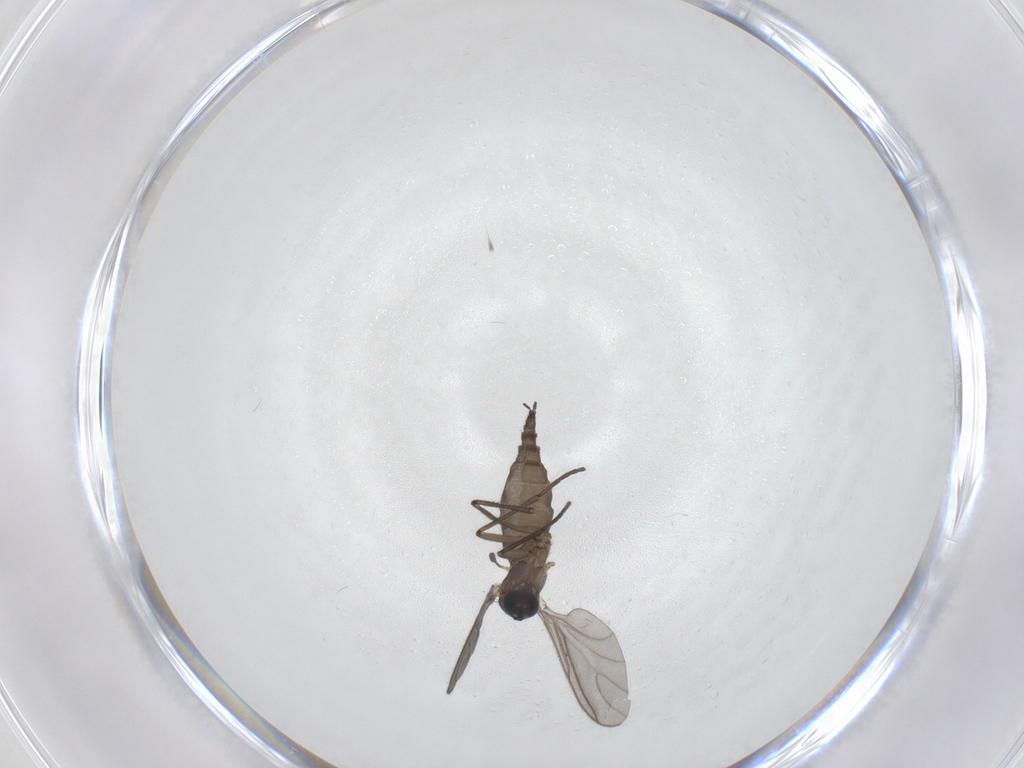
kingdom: Animalia
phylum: Arthropoda
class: Insecta
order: Diptera
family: Sciaridae
